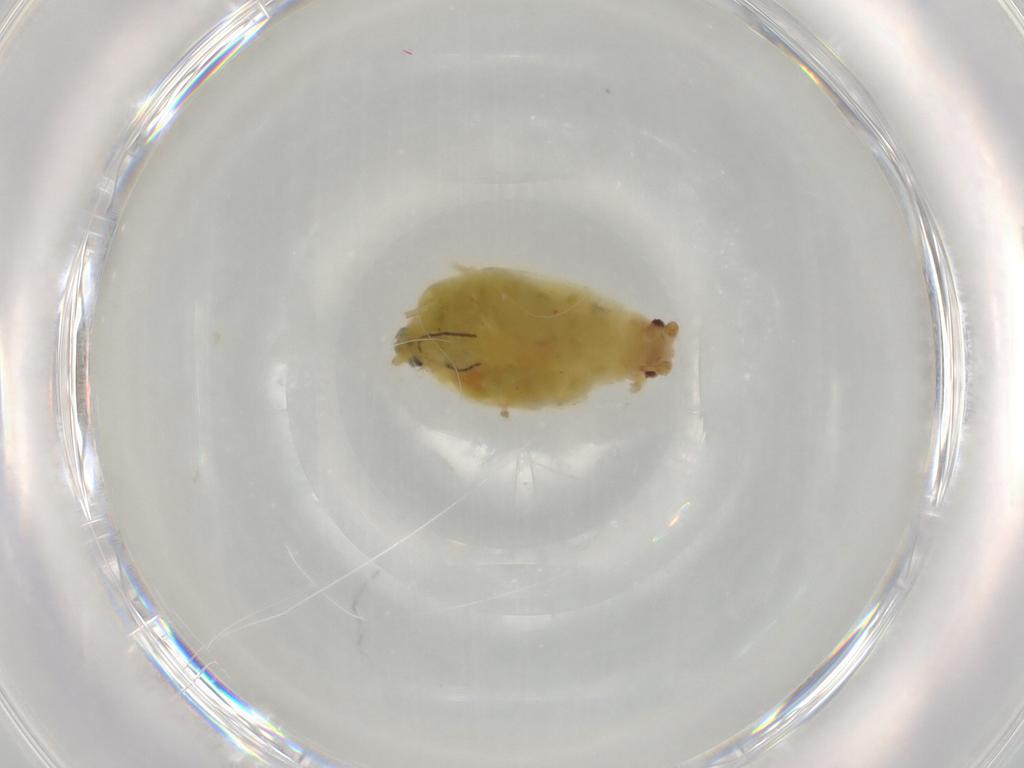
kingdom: Animalia
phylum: Arthropoda
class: Insecta
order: Hemiptera
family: Aphididae
